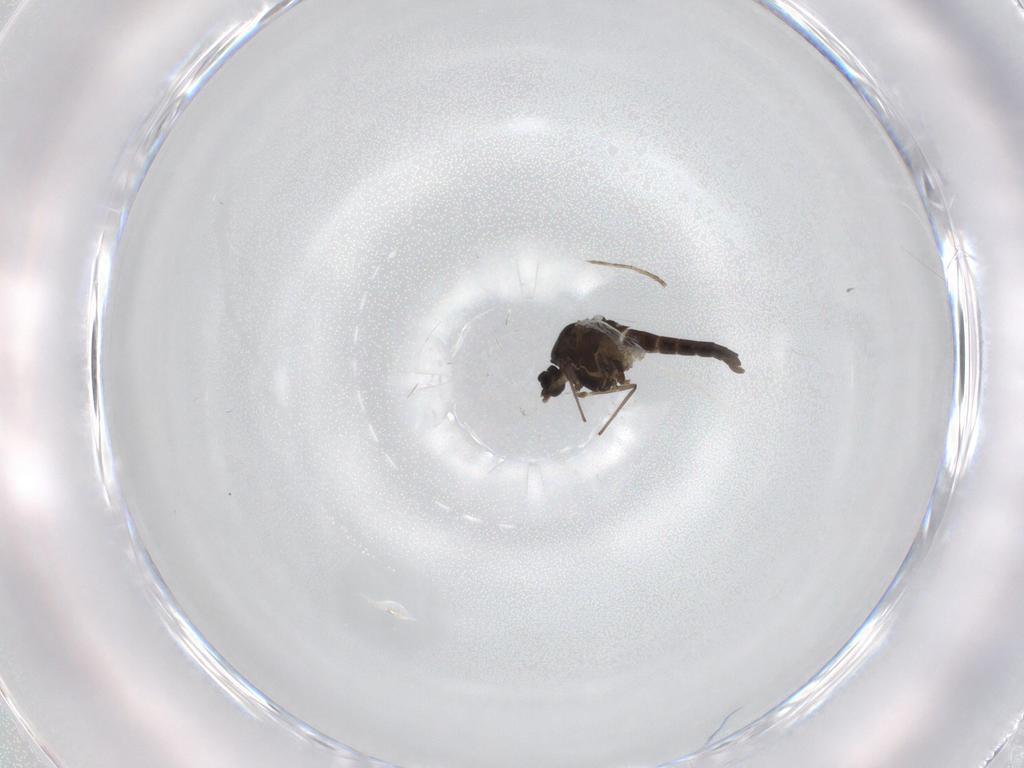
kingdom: Animalia
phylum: Arthropoda
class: Insecta
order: Diptera
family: Chironomidae
